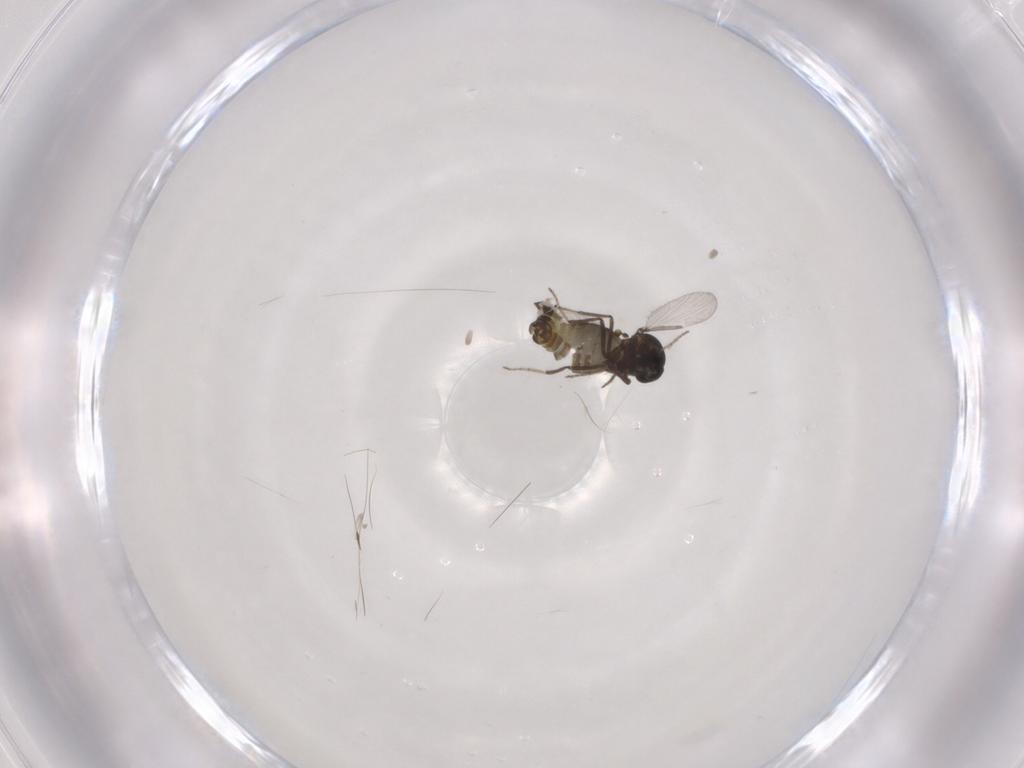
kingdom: Animalia
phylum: Arthropoda
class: Insecta
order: Diptera
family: Ceratopogonidae
